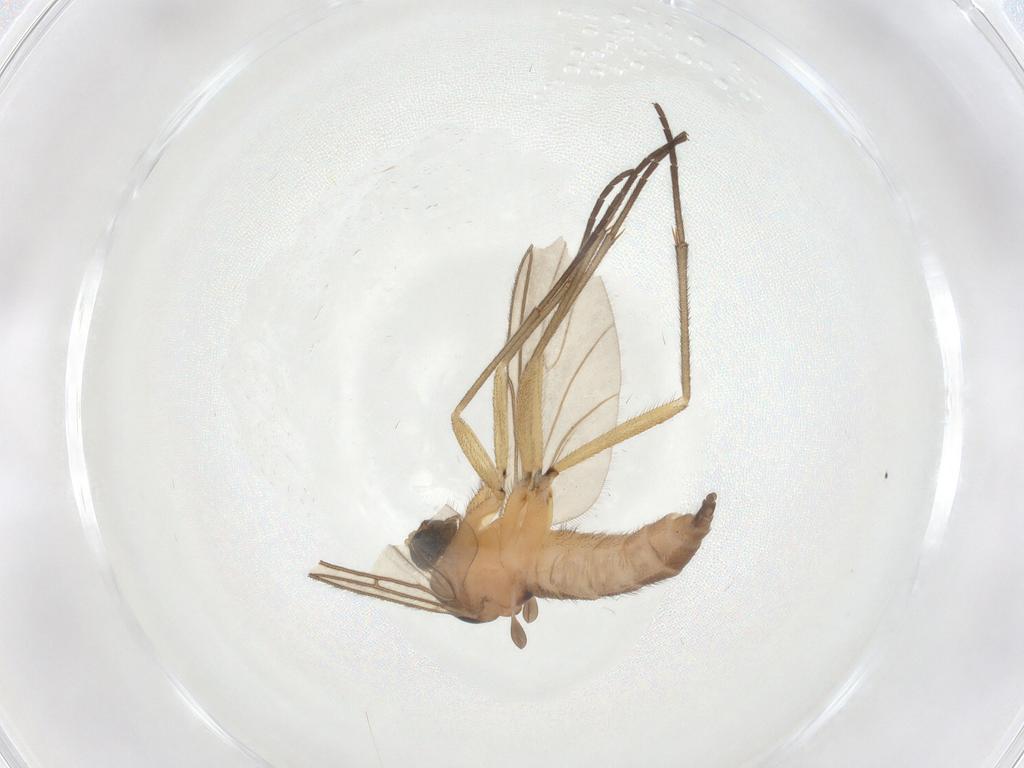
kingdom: Animalia
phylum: Arthropoda
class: Insecta
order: Diptera
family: Sciaridae
